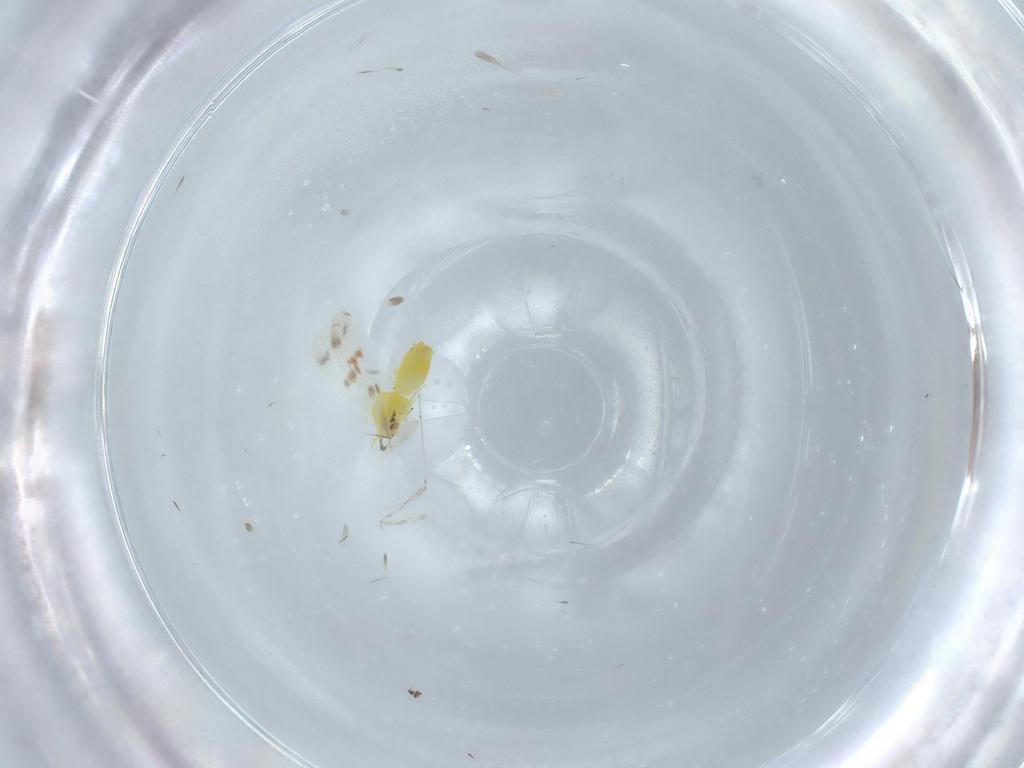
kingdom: Animalia
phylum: Arthropoda
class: Insecta
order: Hemiptera
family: Aleyrodidae
